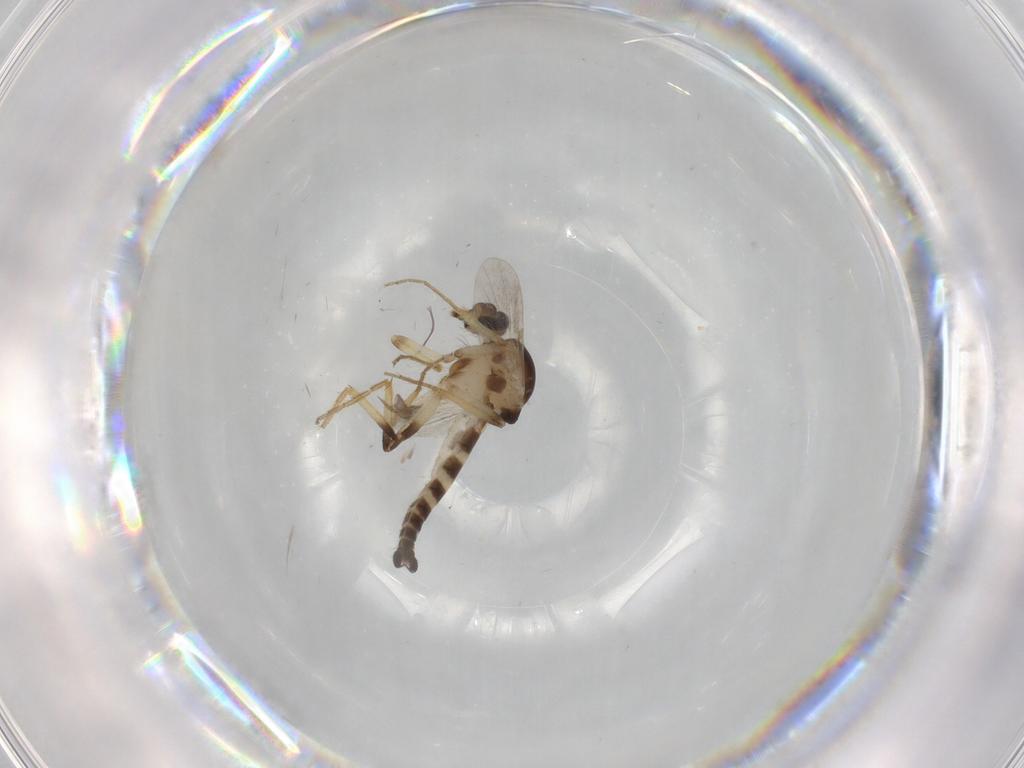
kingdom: Animalia
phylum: Arthropoda
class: Insecta
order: Diptera
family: Ceratopogonidae
